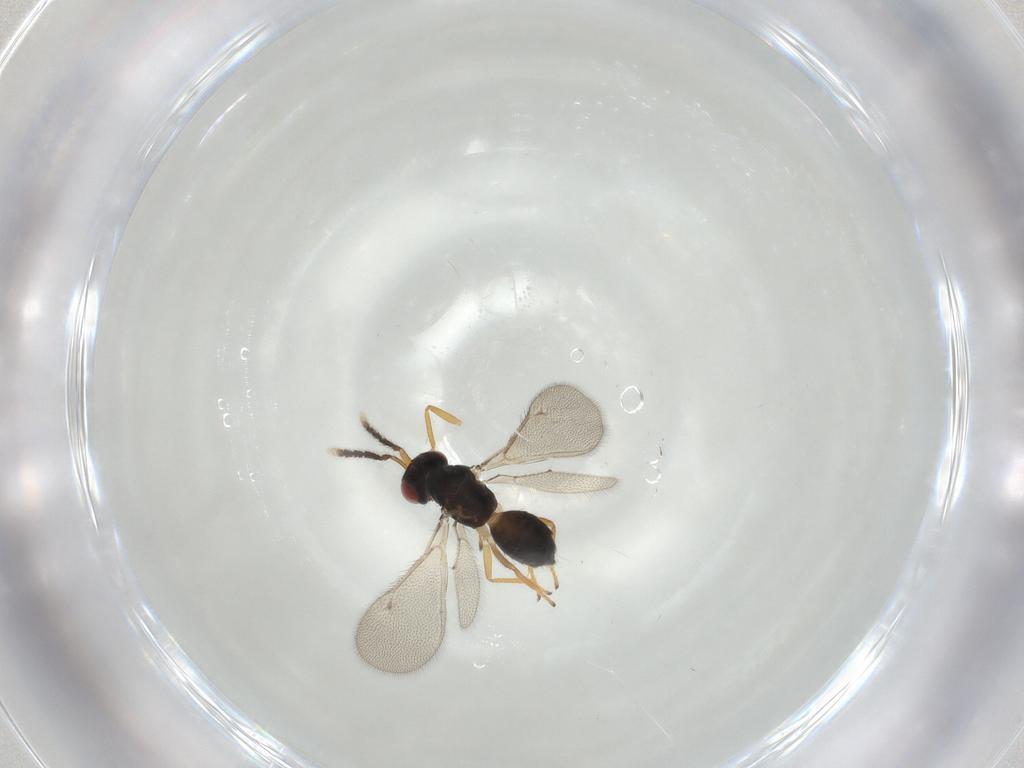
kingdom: Animalia
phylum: Arthropoda
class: Insecta
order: Hymenoptera
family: Eulophidae
